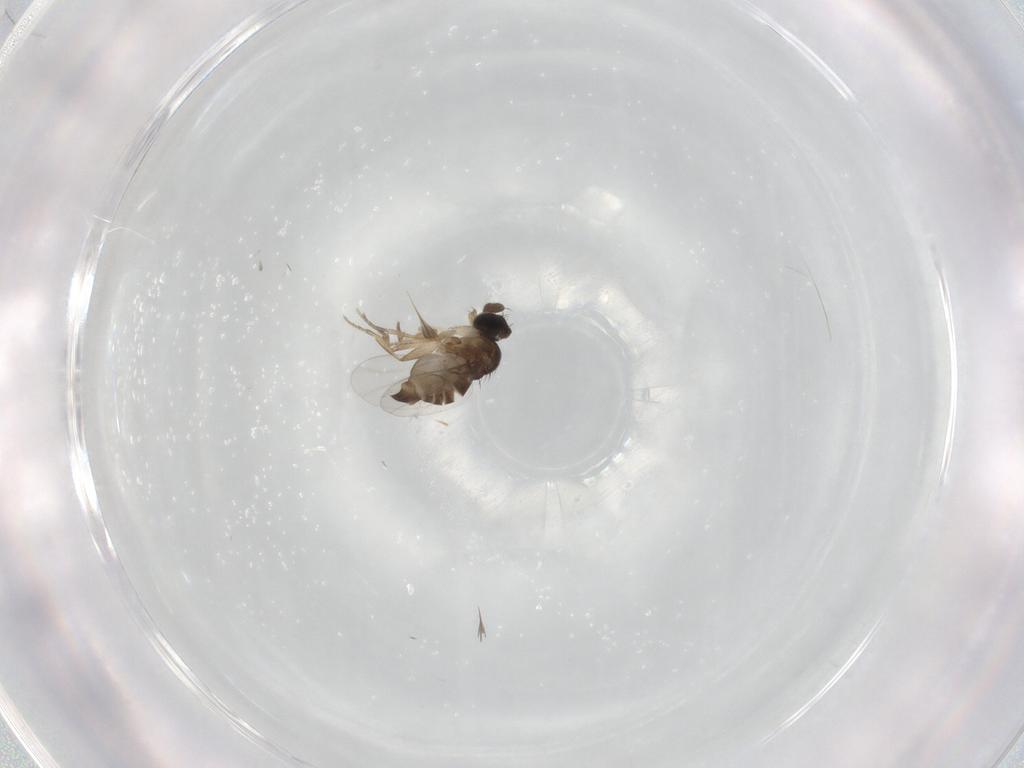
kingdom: Animalia
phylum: Arthropoda
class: Insecta
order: Diptera
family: Phoridae
